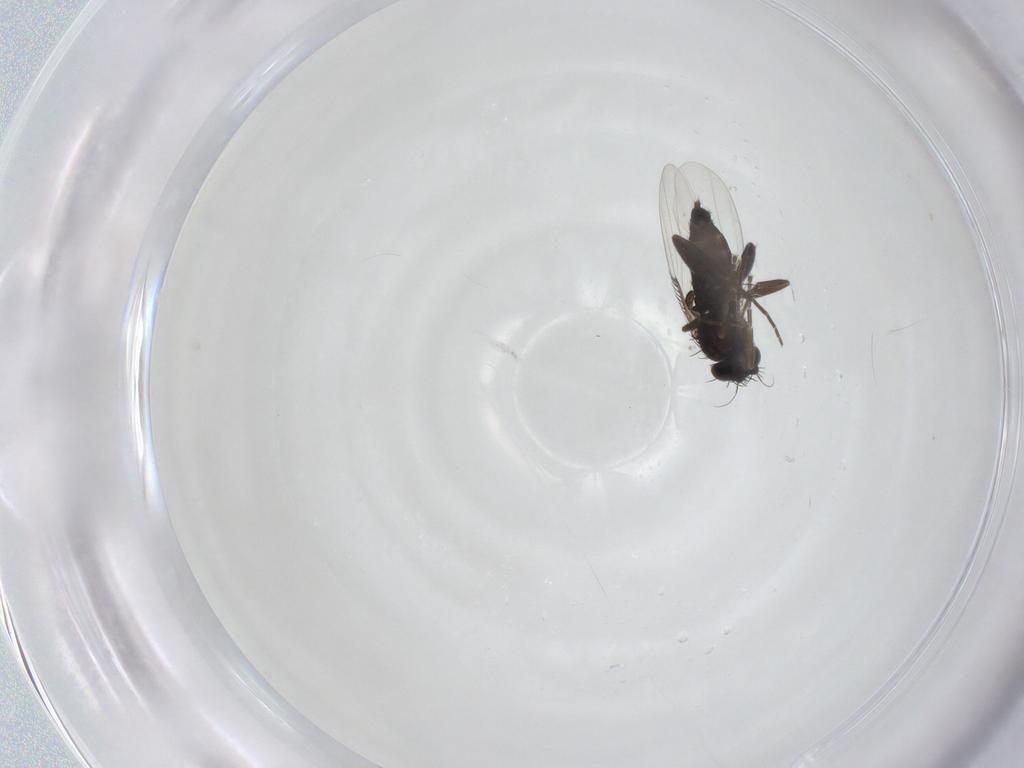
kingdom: Animalia
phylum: Arthropoda
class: Insecta
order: Diptera
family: Phoridae
